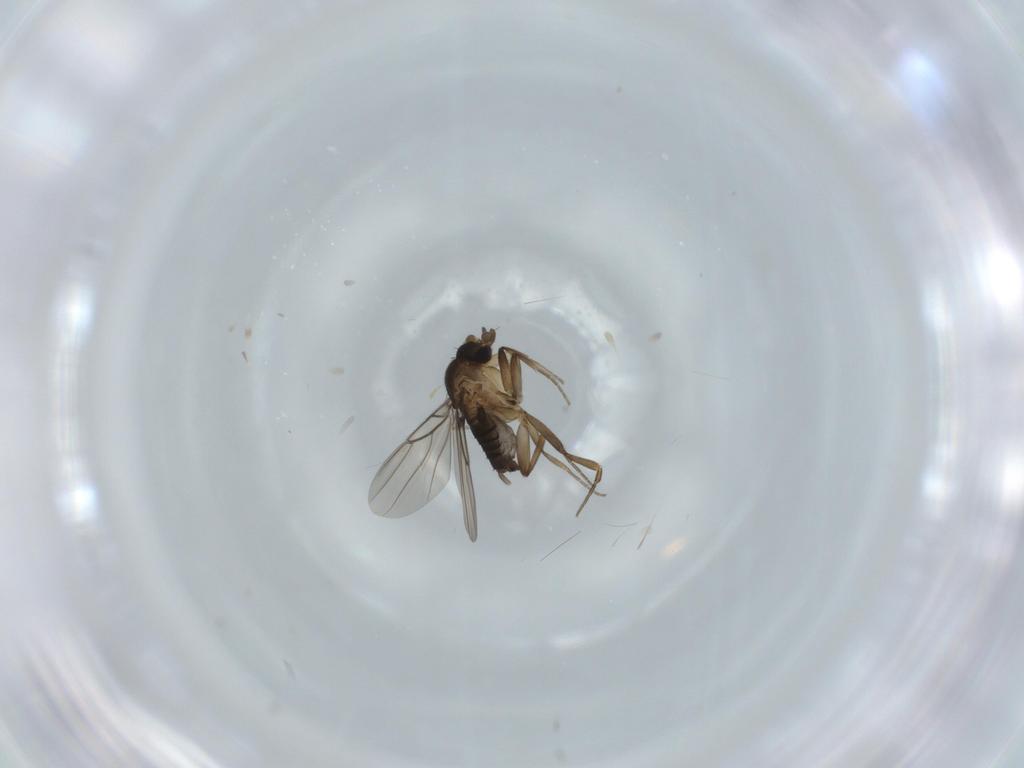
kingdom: Animalia
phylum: Arthropoda
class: Insecta
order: Diptera
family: Phoridae
